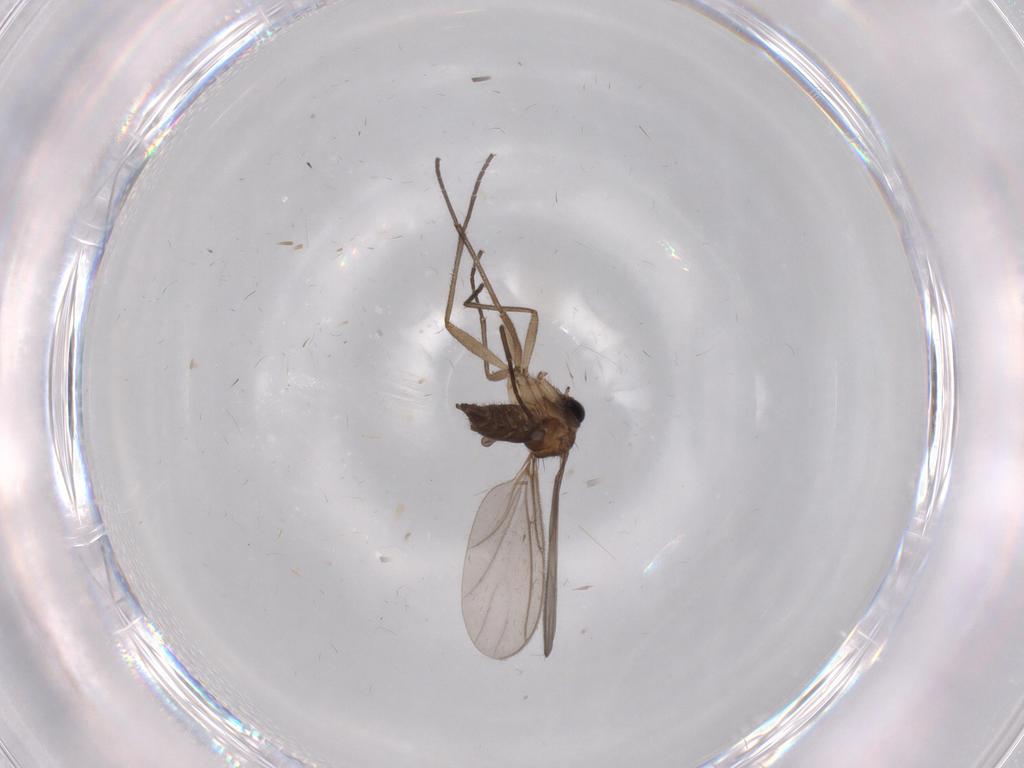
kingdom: Animalia
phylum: Arthropoda
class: Insecta
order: Diptera
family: Sciaridae
